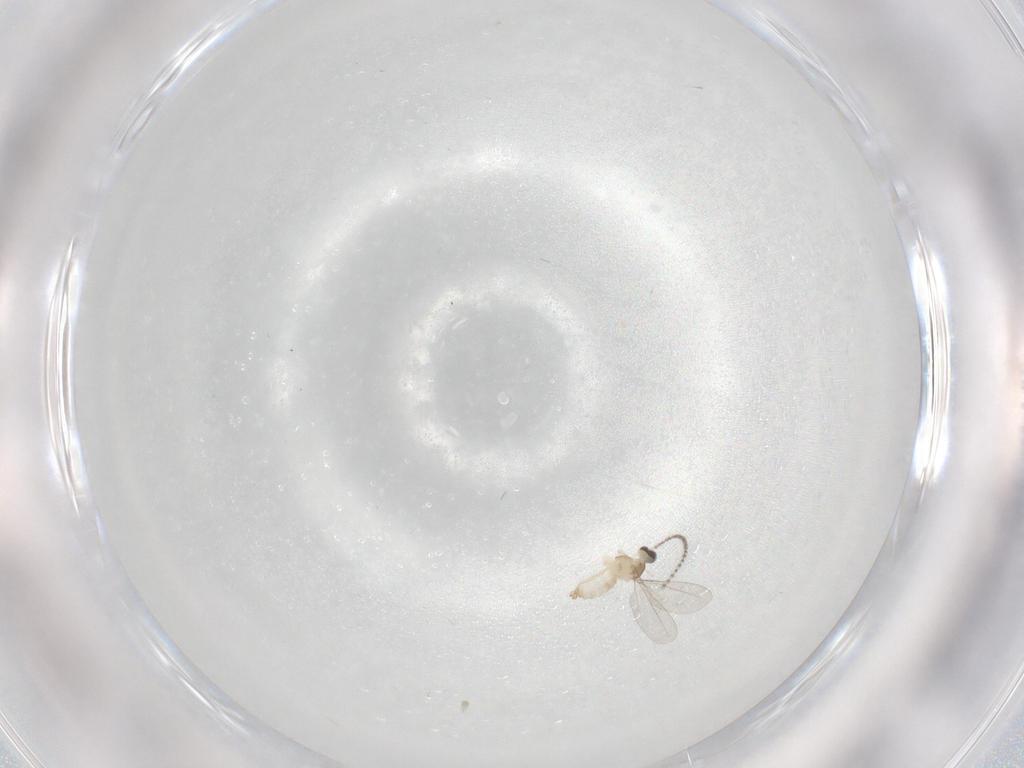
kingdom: Animalia
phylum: Arthropoda
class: Insecta
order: Diptera
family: Cecidomyiidae
